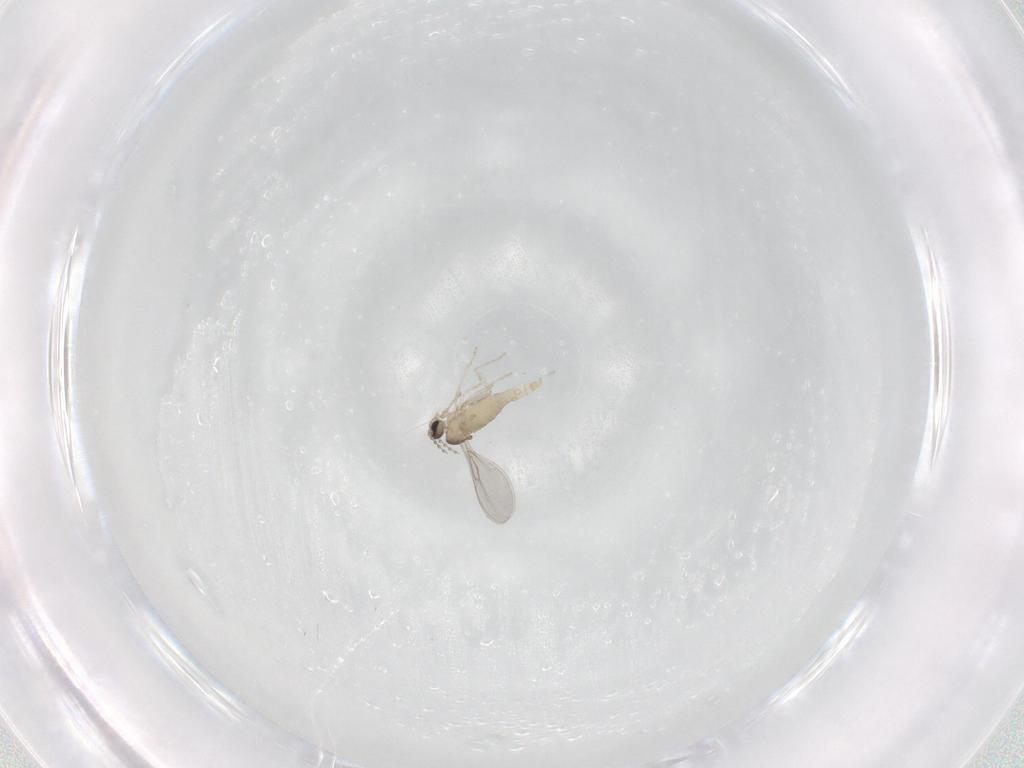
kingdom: Animalia
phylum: Arthropoda
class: Insecta
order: Diptera
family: Cecidomyiidae
